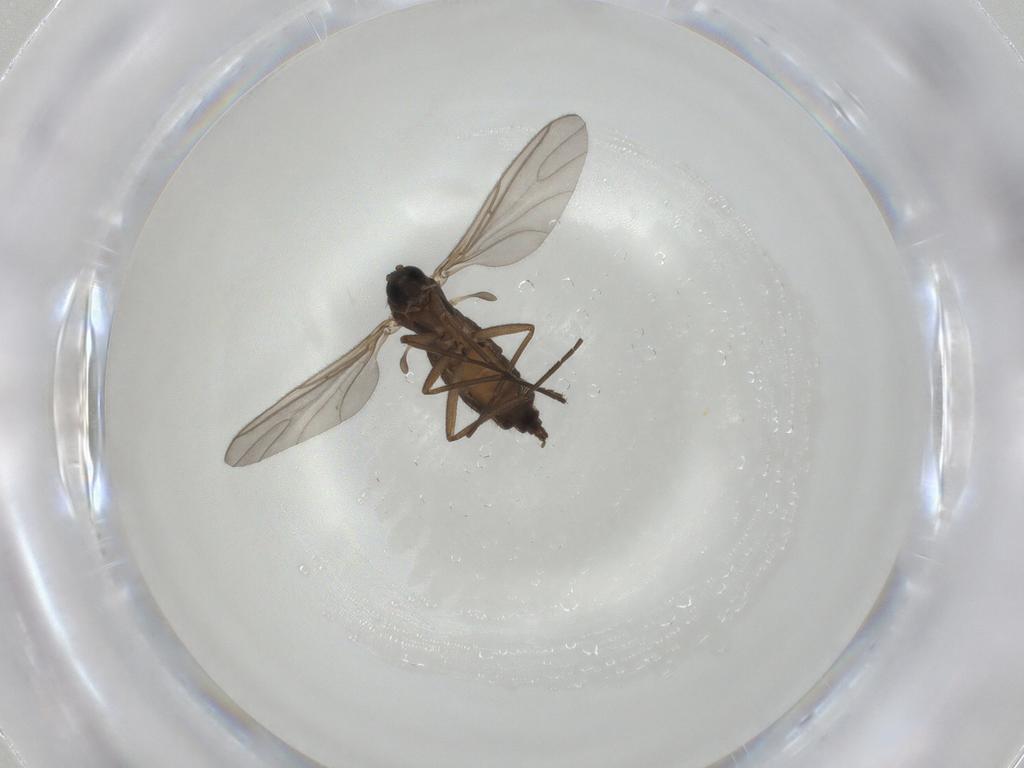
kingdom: Animalia
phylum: Arthropoda
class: Insecta
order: Diptera
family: Sciaridae
